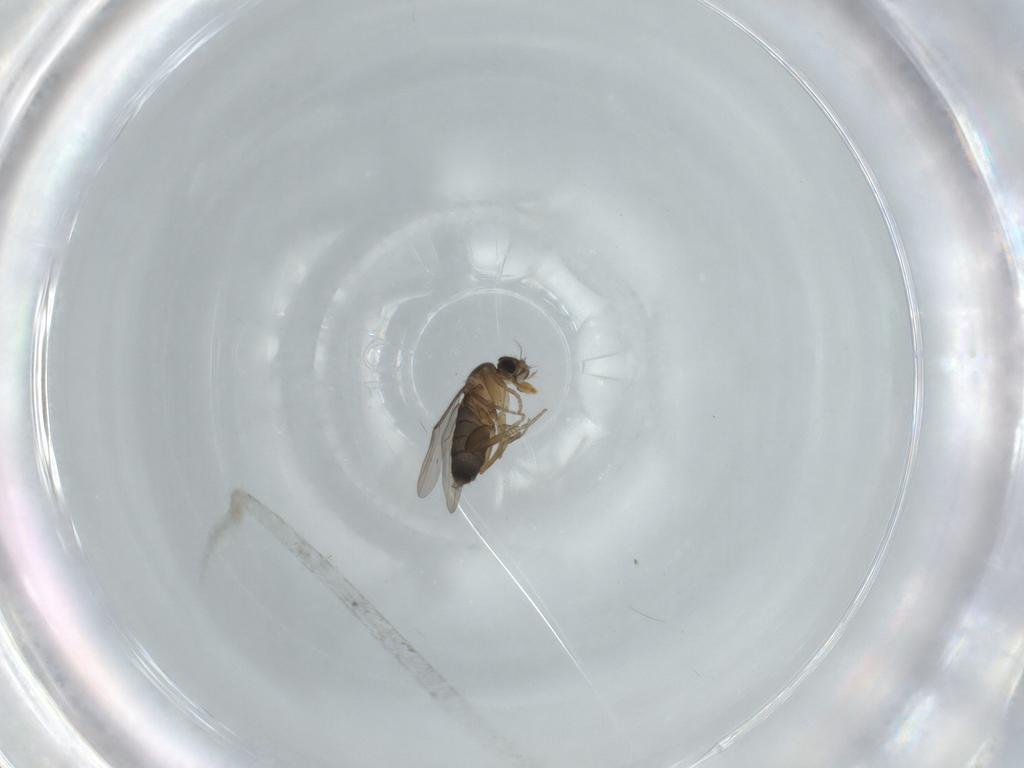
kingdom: Animalia
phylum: Arthropoda
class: Insecta
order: Diptera
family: Phoridae
